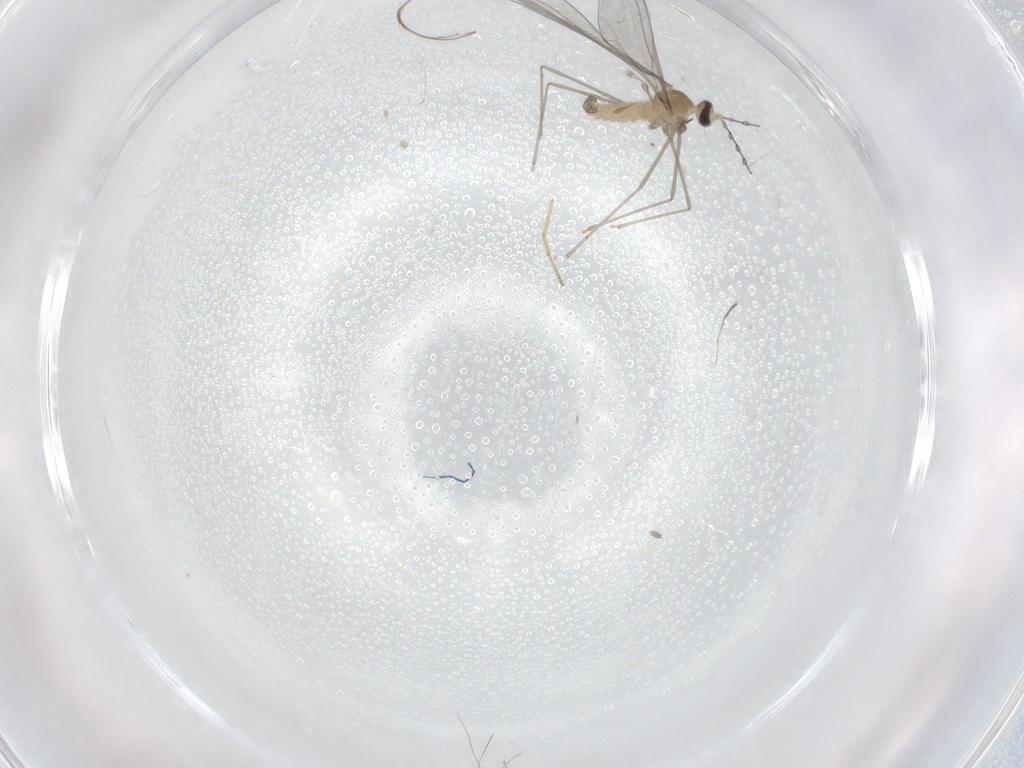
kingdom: Animalia
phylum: Arthropoda
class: Insecta
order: Diptera
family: Cecidomyiidae
